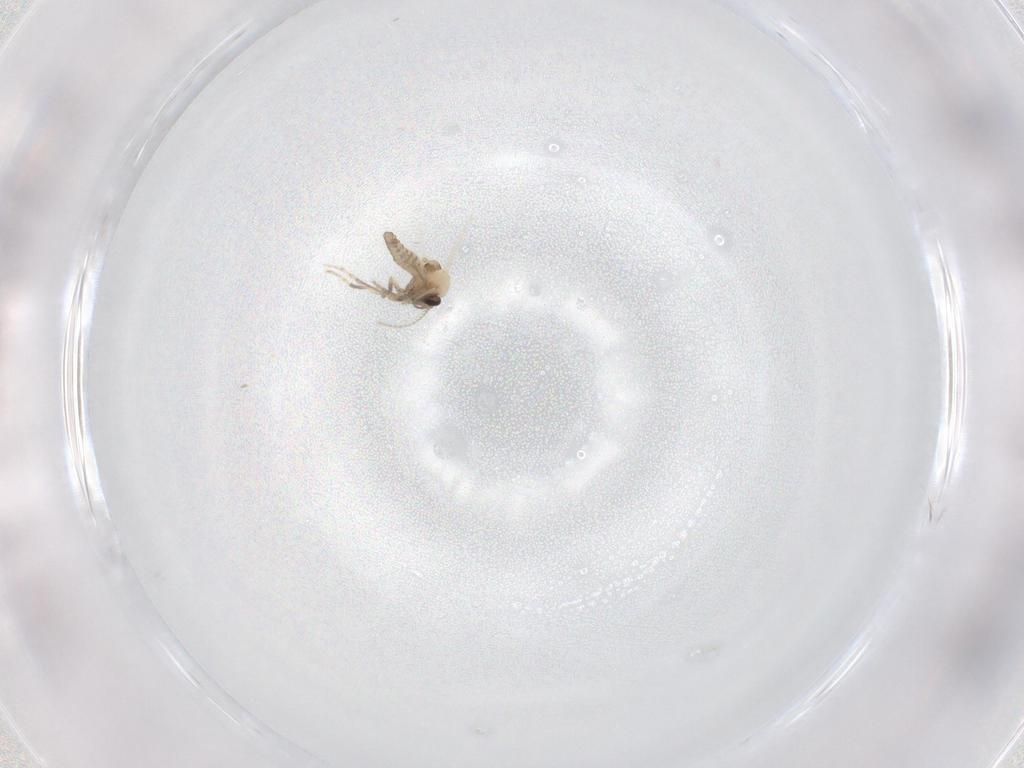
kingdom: Animalia
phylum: Arthropoda
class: Insecta
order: Diptera
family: Ceratopogonidae
